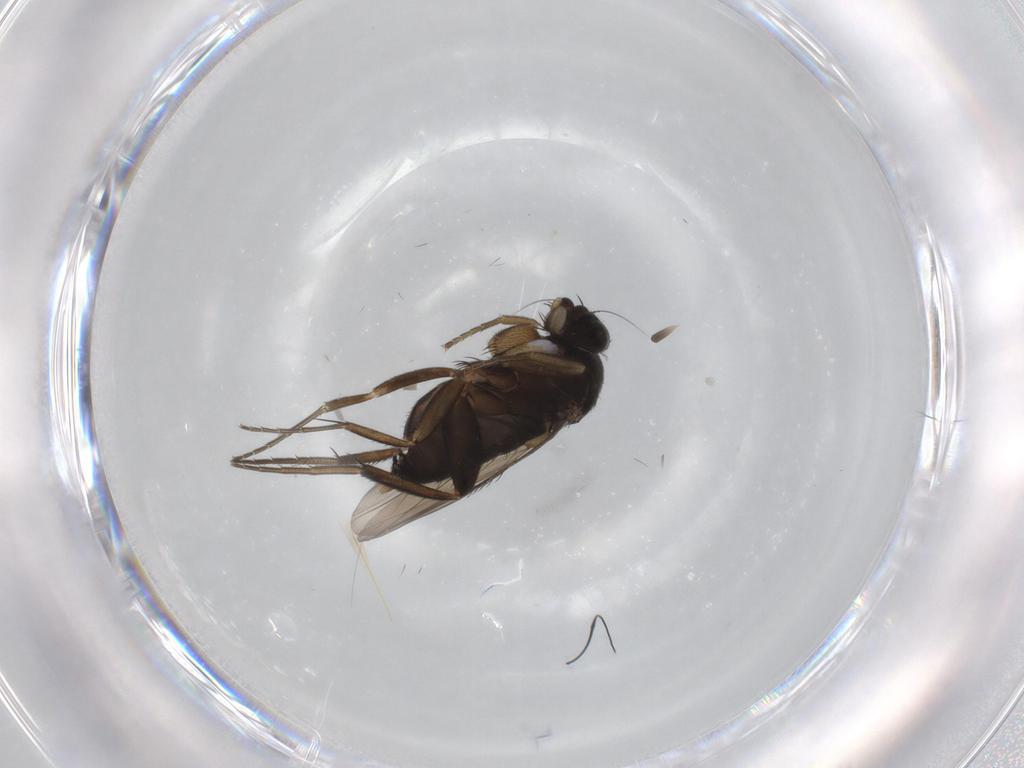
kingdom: Animalia
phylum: Arthropoda
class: Insecta
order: Diptera
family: Phoridae
